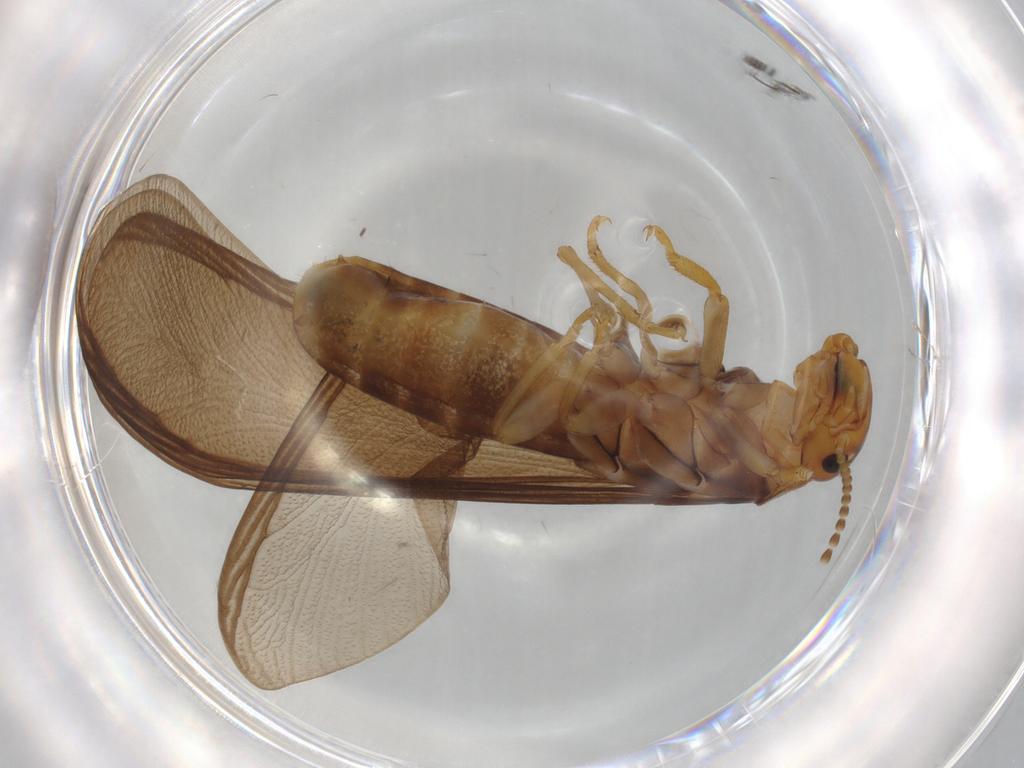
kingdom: Animalia
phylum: Arthropoda
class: Insecta
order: Blattodea
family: Kalotermitidae
